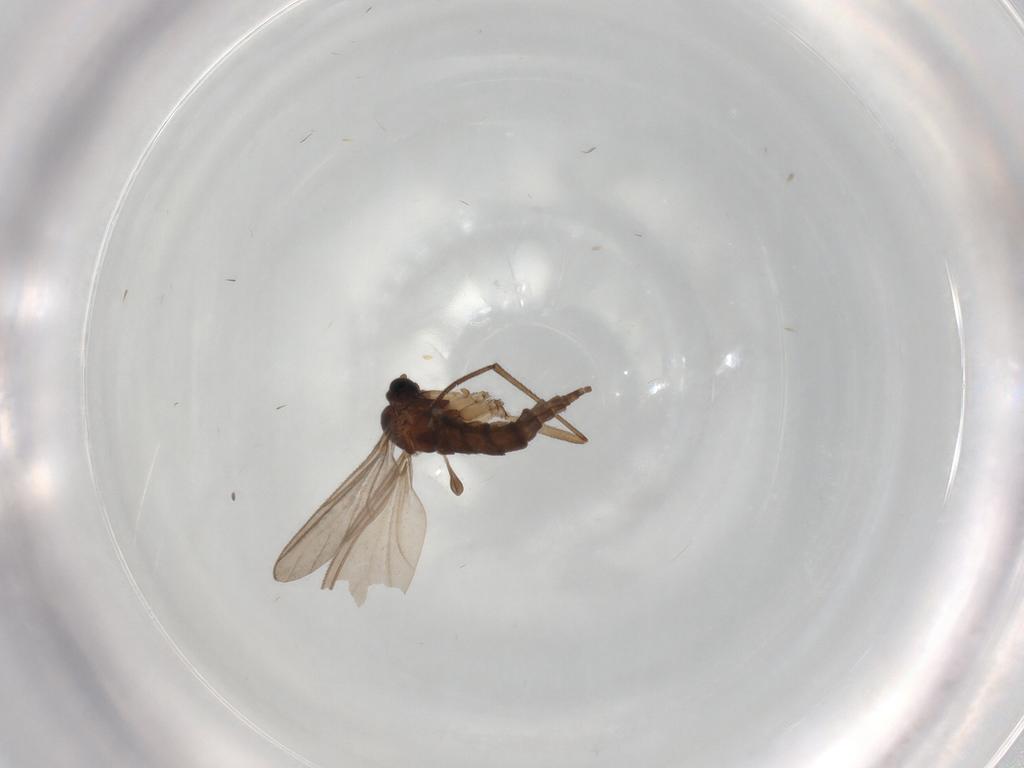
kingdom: Animalia
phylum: Arthropoda
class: Insecta
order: Diptera
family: Sciaridae
